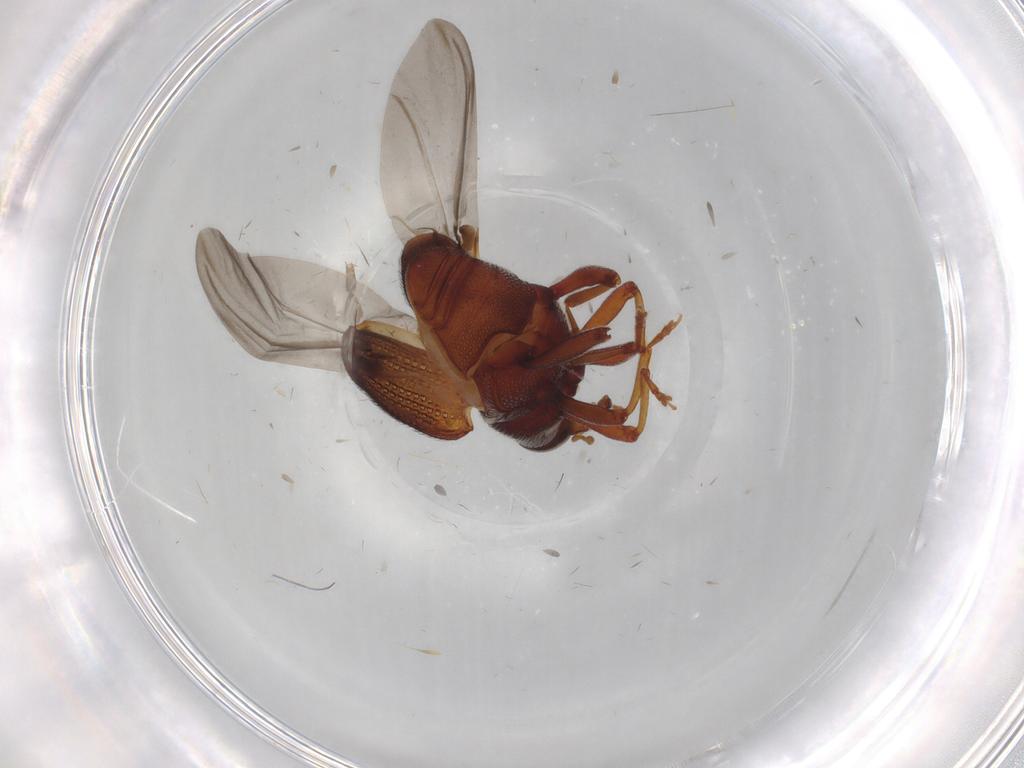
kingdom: Animalia
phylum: Arthropoda
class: Insecta
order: Coleoptera
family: Curculionidae
